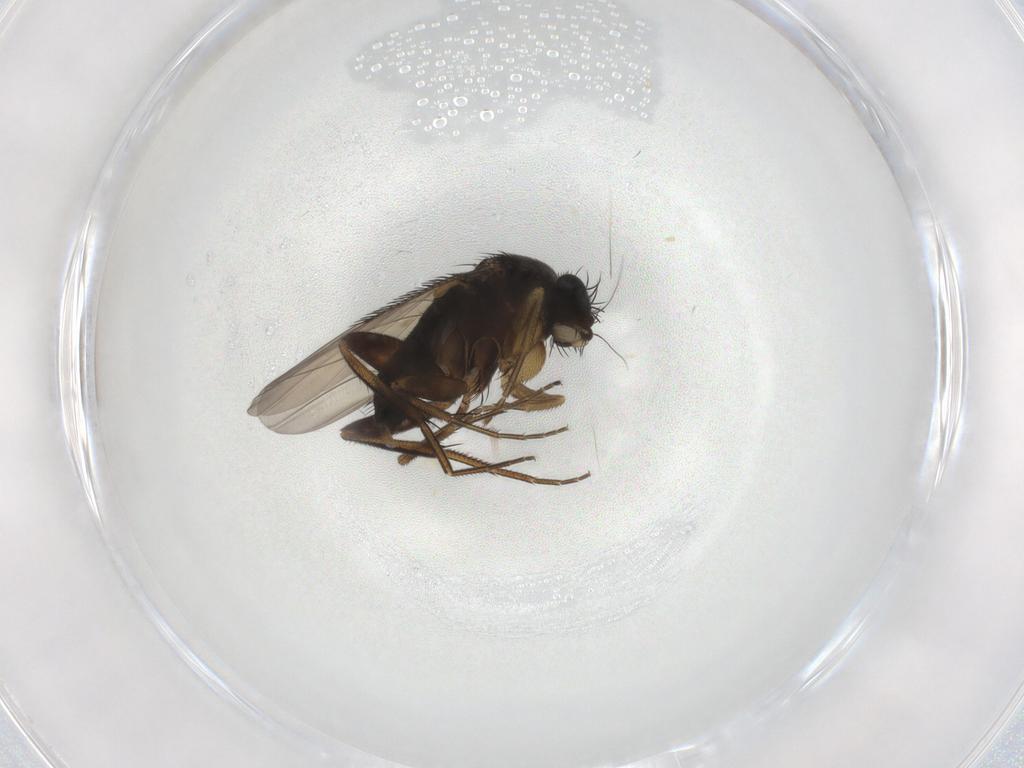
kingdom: Animalia
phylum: Arthropoda
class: Insecta
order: Diptera
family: Phoridae
